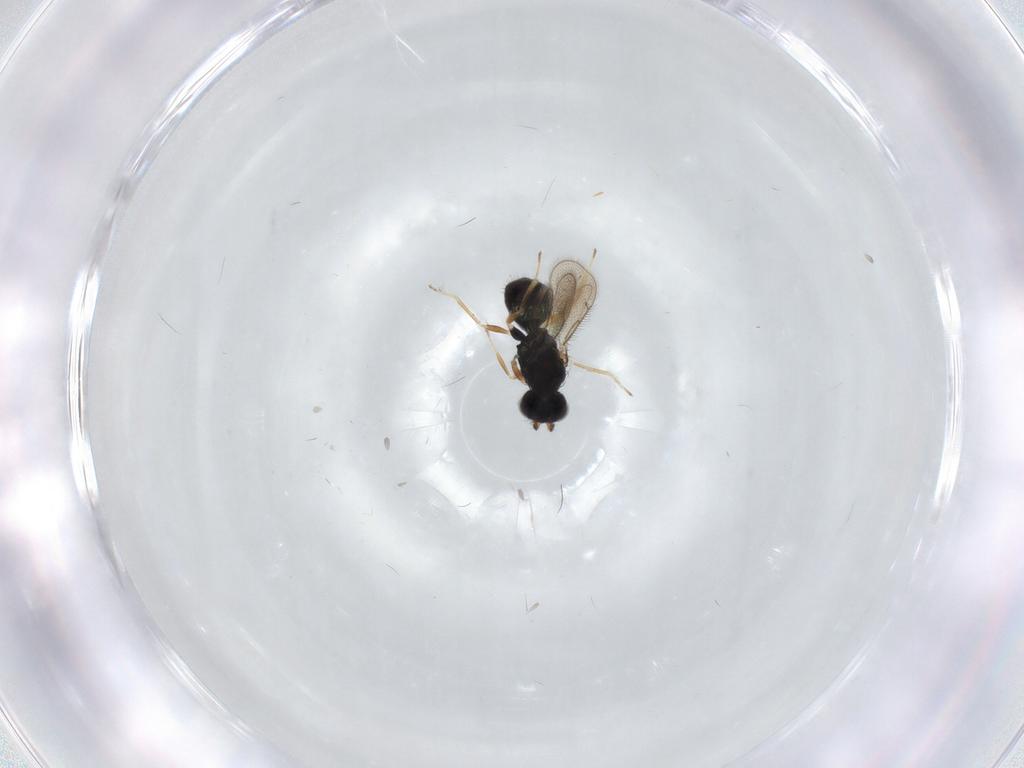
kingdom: Animalia
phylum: Arthropoda
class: Insecta
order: Hymenoptera
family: Eulophidae
